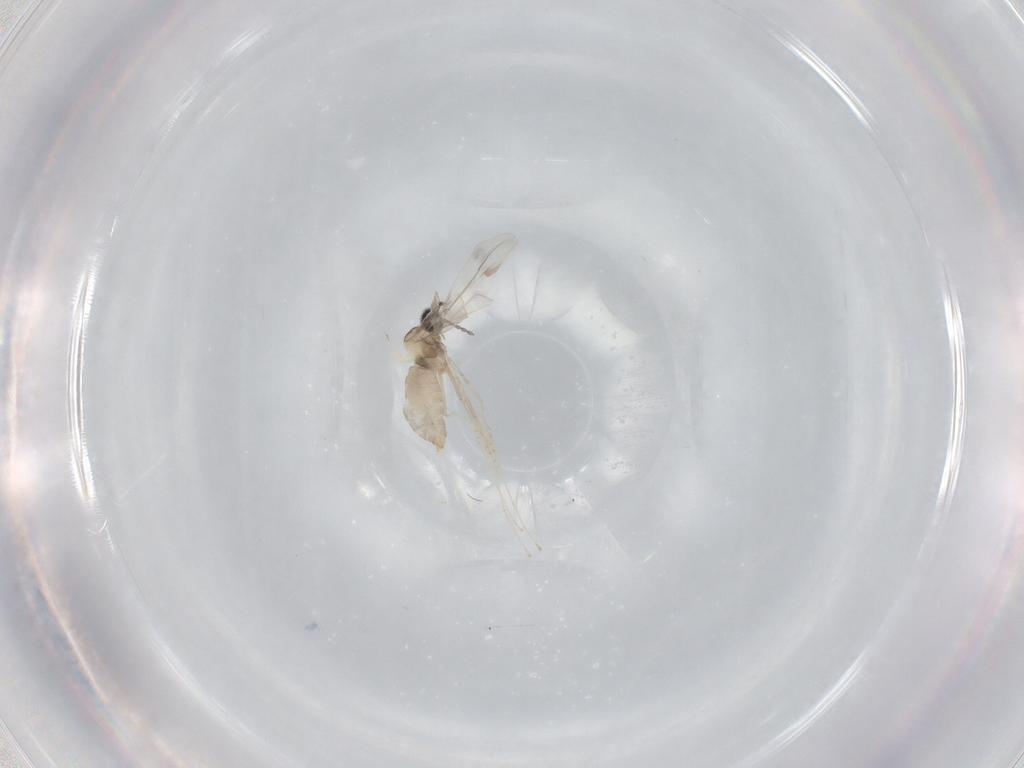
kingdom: Animalia
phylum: Arthropoda
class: Insecta
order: Diptera
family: Cecidomyiidae
